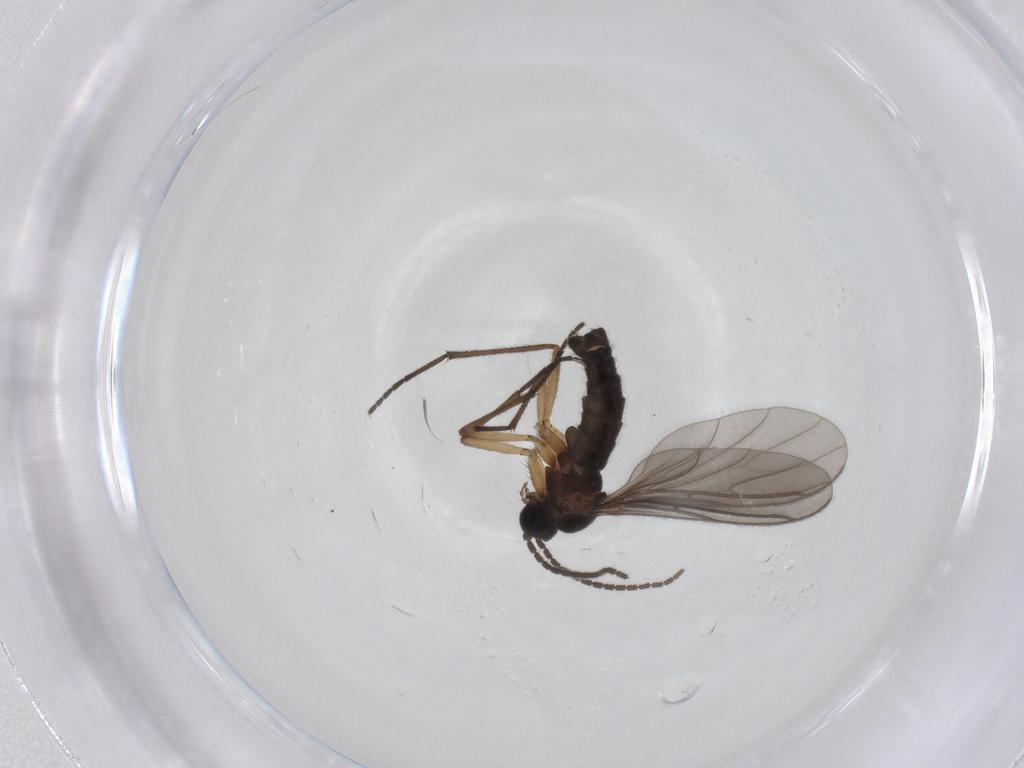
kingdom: Animalia
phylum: Arthropoda
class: Insecta
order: Diptera
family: Sciaridae
